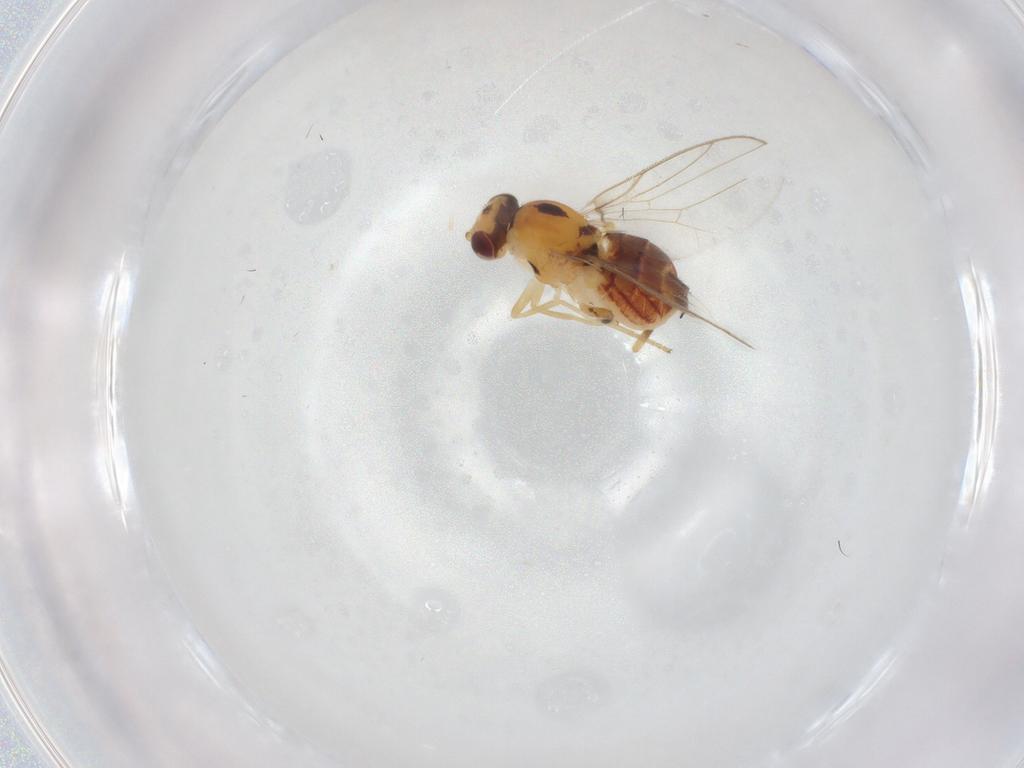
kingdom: Animalia
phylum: Arthropoda
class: Insecta
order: Diptera
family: Chloropidae
